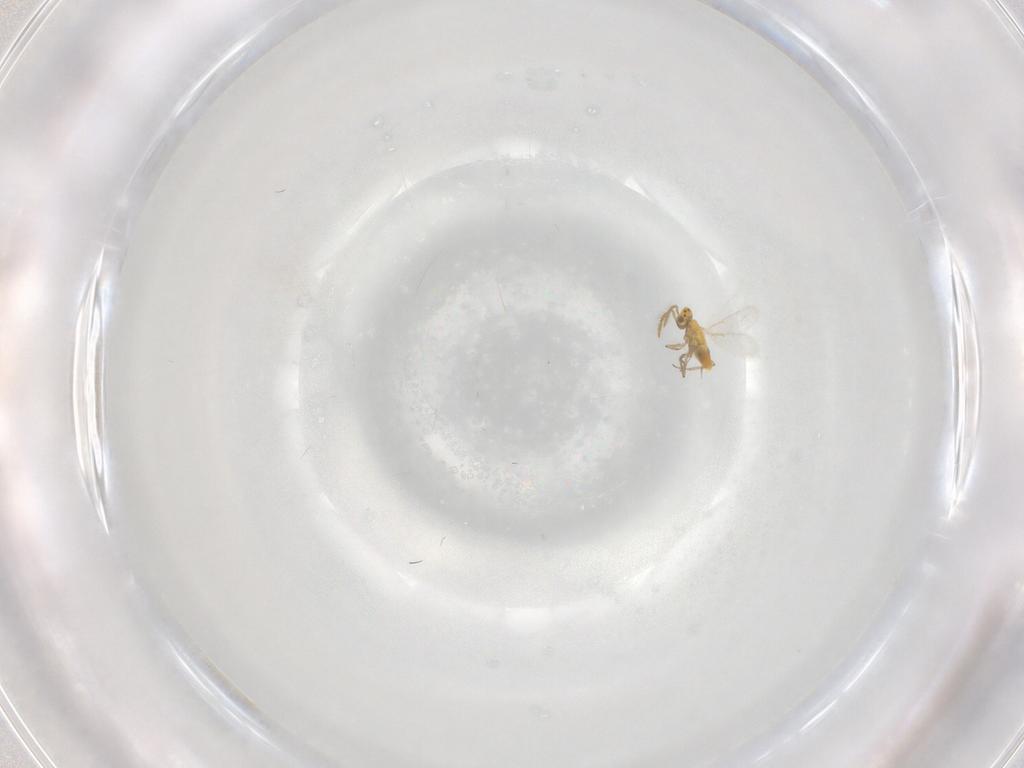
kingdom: Animalia
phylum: Arthropoda
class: Insecta
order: Hymenoptera
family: Aphelinidae
